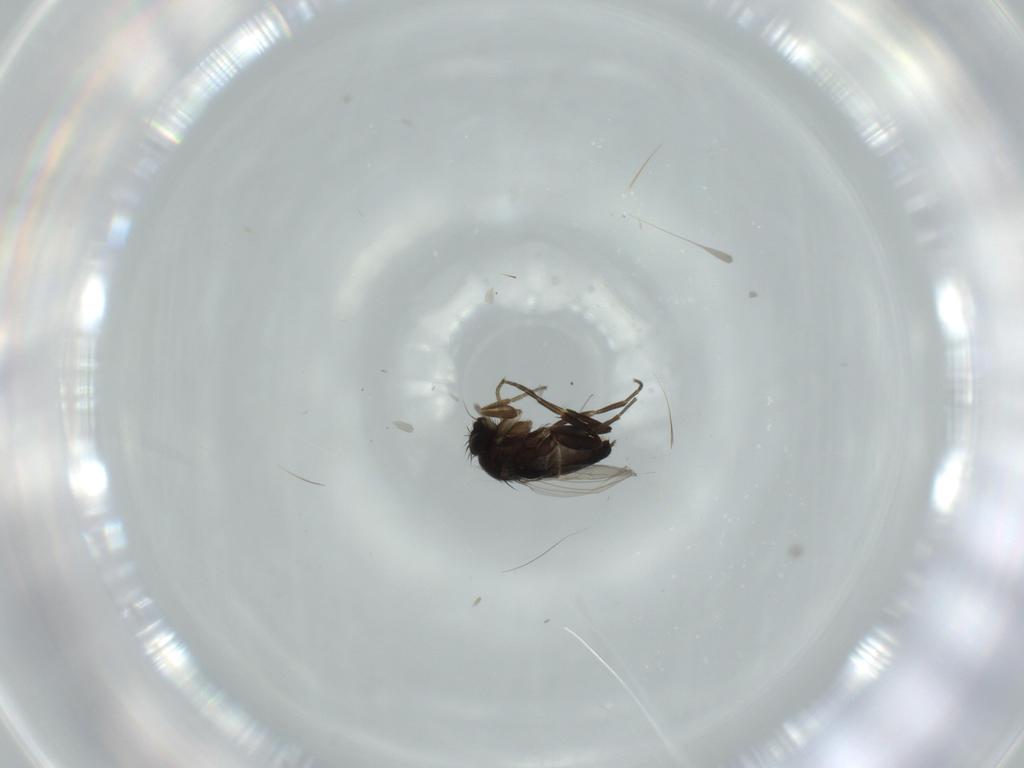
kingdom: Animalia
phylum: Arthropoda
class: Insecta
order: Diptera
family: Phoridae
